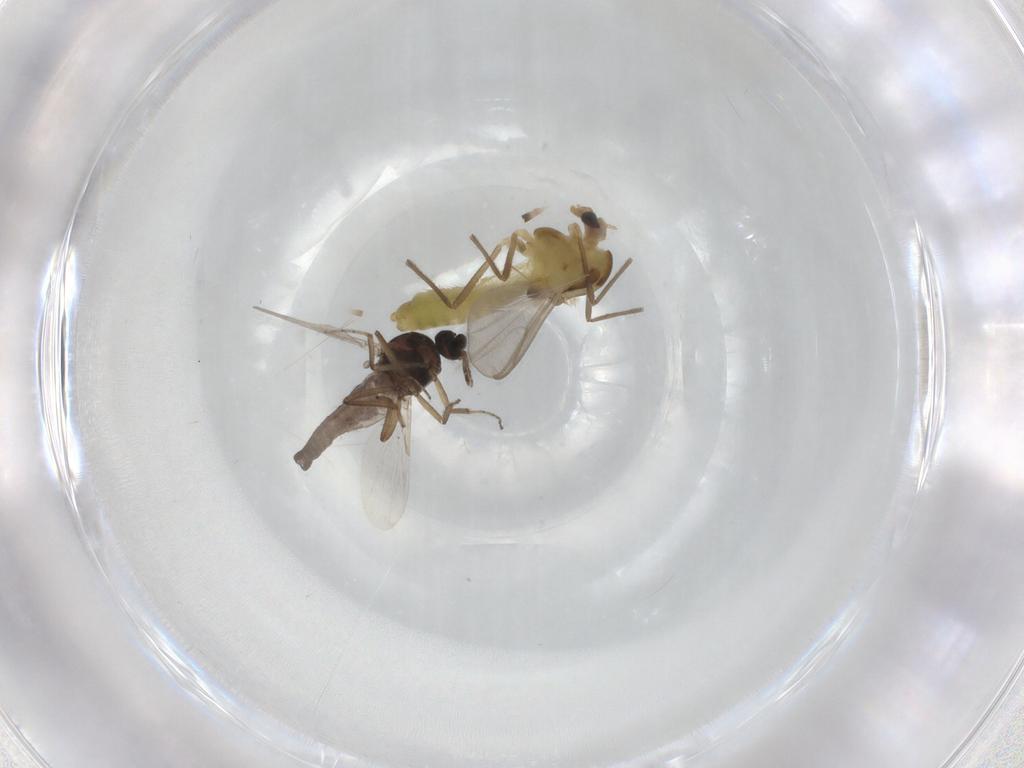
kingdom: Animalia
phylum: Arthropoda
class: Insecta
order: Diptera
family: Ceratopogonidae
